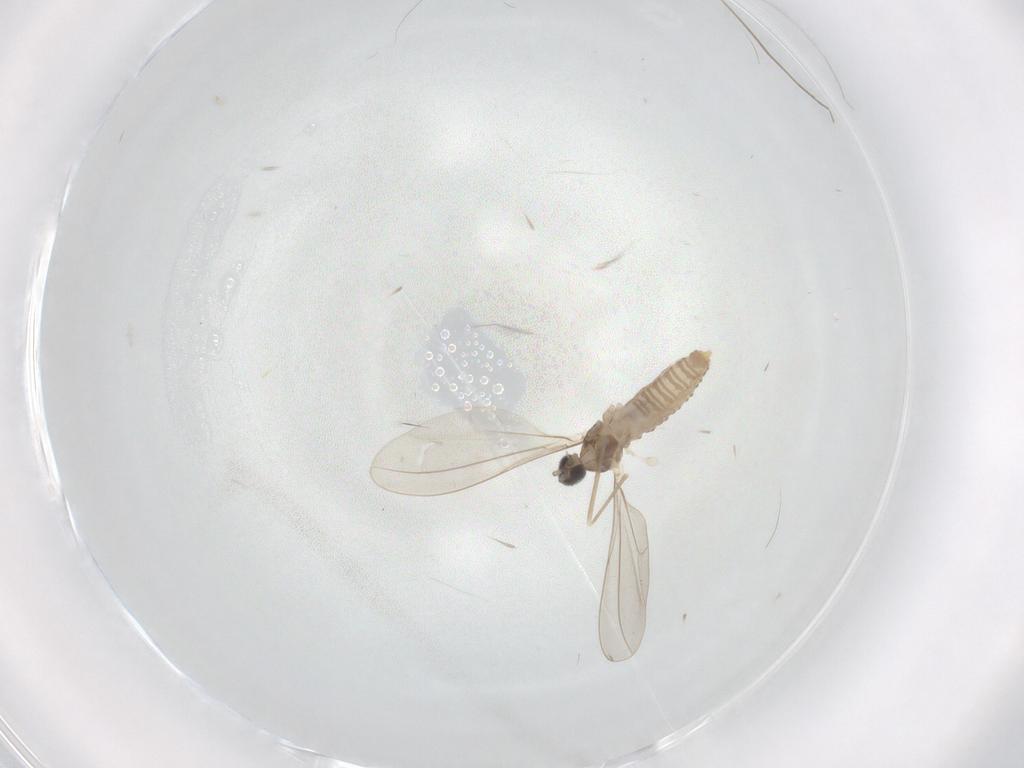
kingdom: Animalia
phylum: Arthropoda
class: Insecta
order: Diptera
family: Cecidomyiidae
